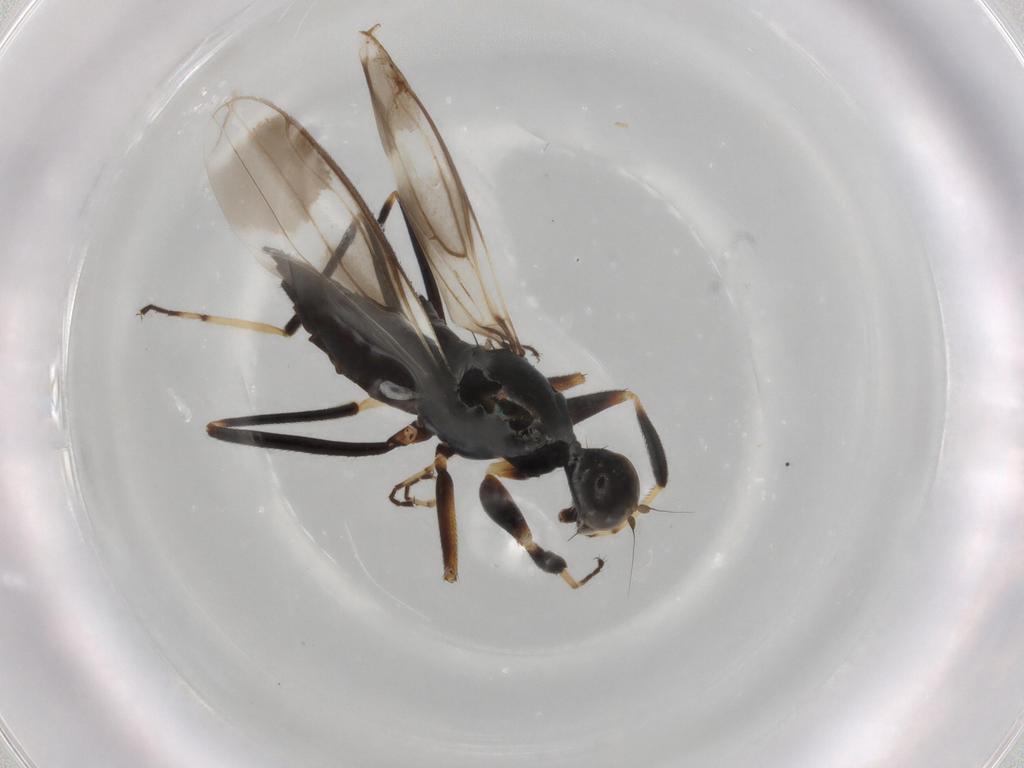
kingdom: Animalia
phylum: Arthropoda
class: Insecta
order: Diptera
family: Hybotidae
